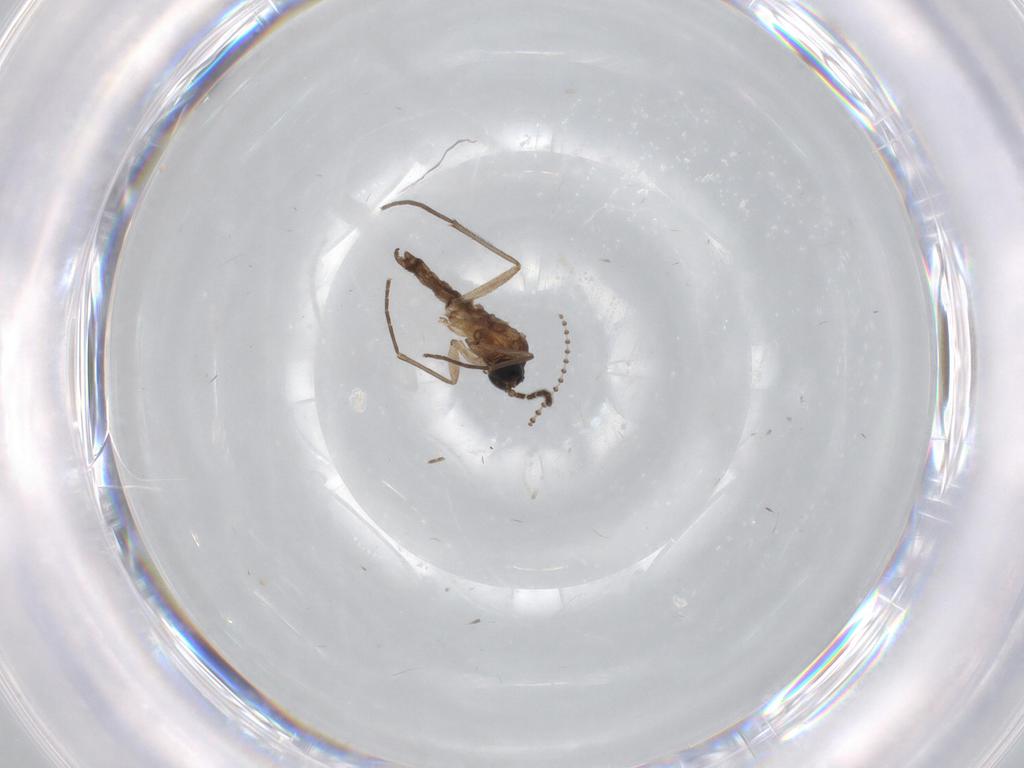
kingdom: Animalia
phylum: Arthropoda
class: Insecta
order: Diptera
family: Sciaridae
